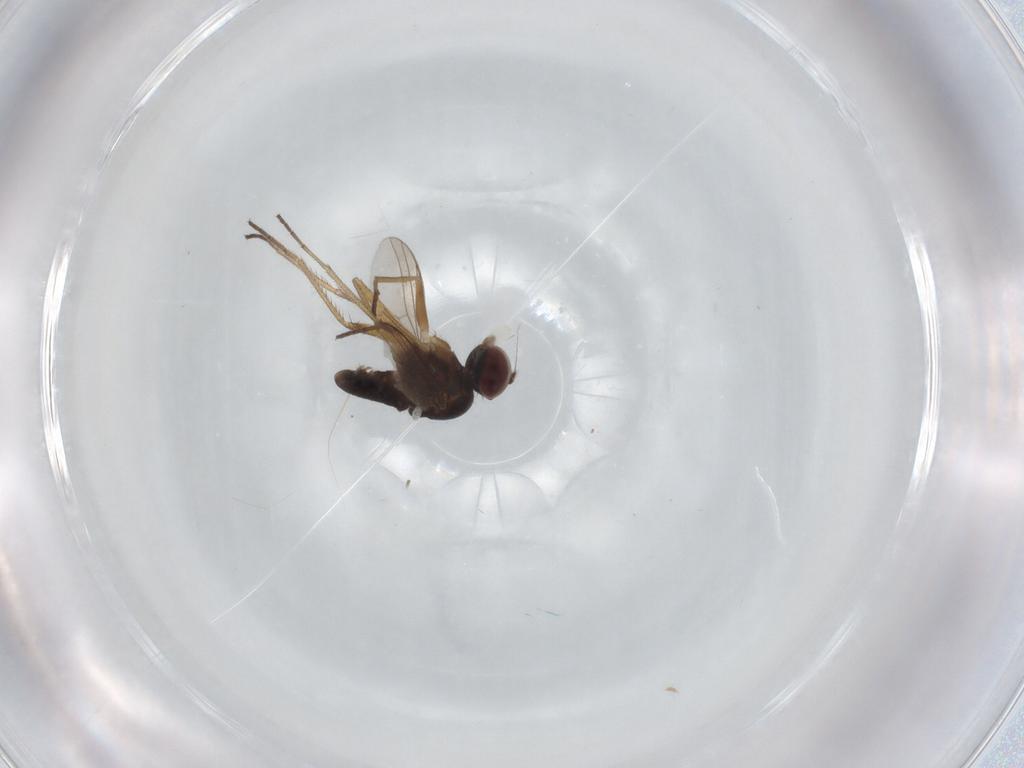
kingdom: Animalia
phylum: Arthropoda
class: Insecta
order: Diptera
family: Dolichopodidae
